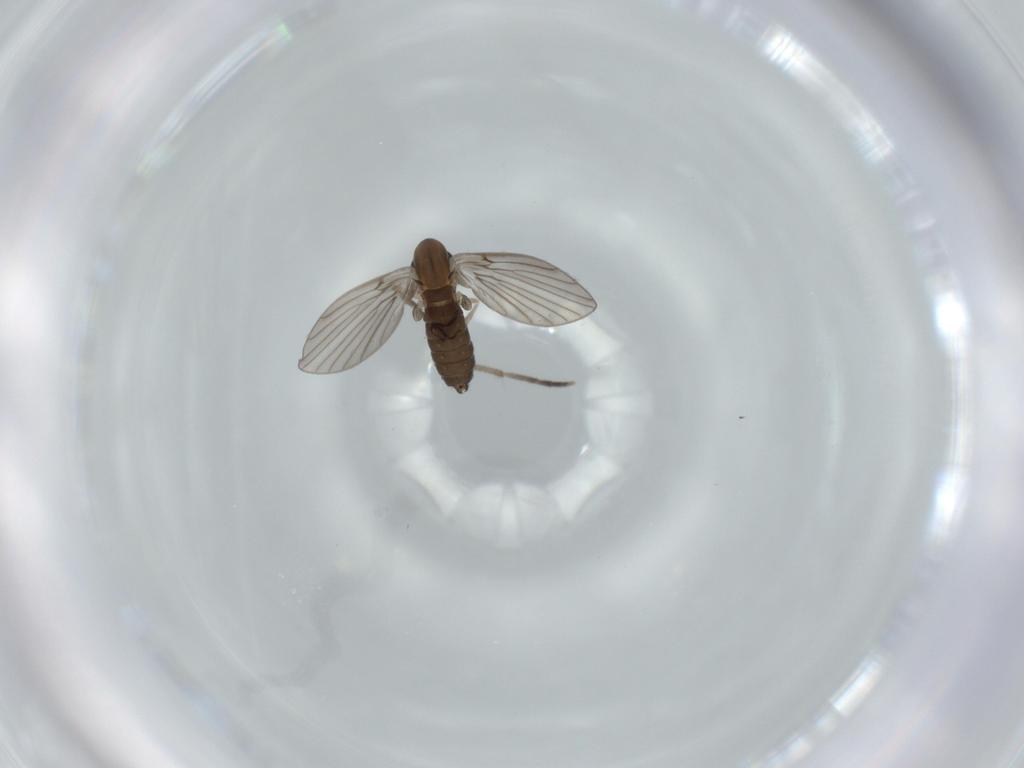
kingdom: Animalia
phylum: Arthropoda
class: Insecta
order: Diptera
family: Psychodidae
